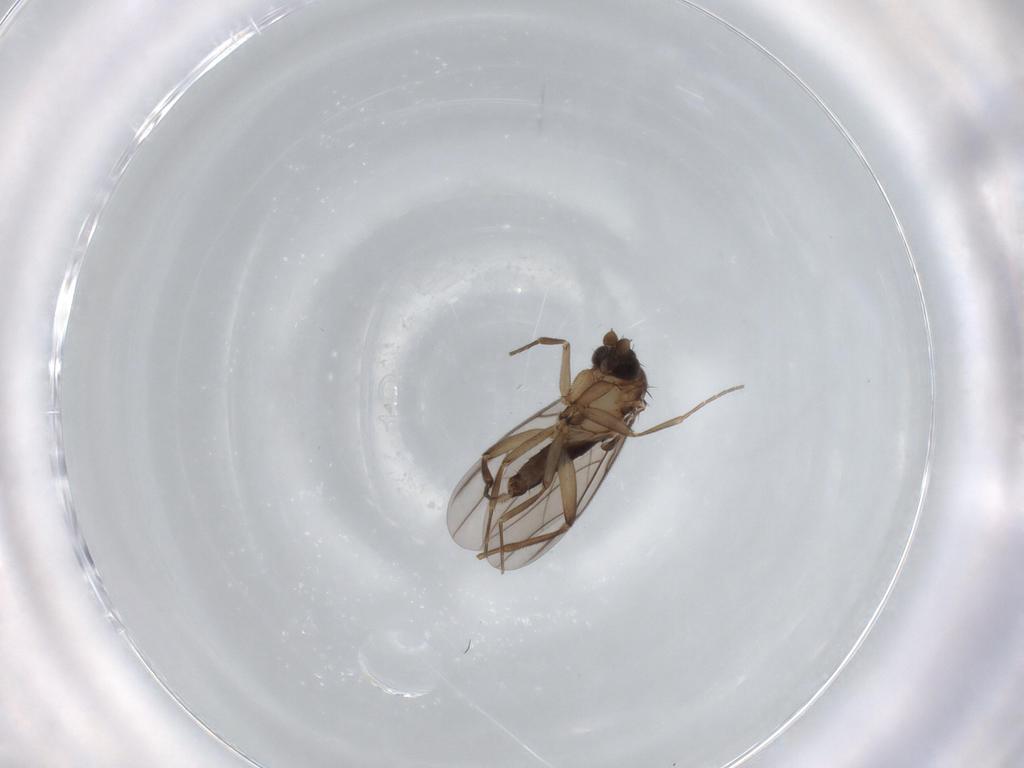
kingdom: Animalia
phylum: Arthropoda
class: Insecta
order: Diptera
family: Phoridae
